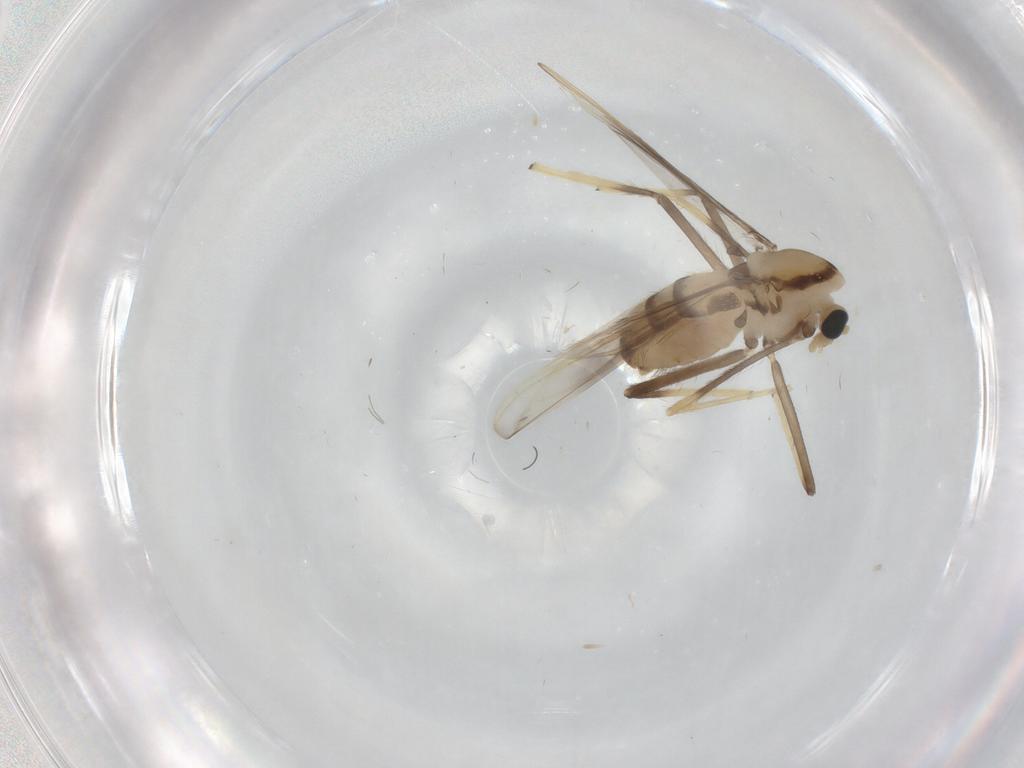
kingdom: Animalia
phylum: Arthropoda
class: Insecta
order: Diptera
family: Chironomidae
